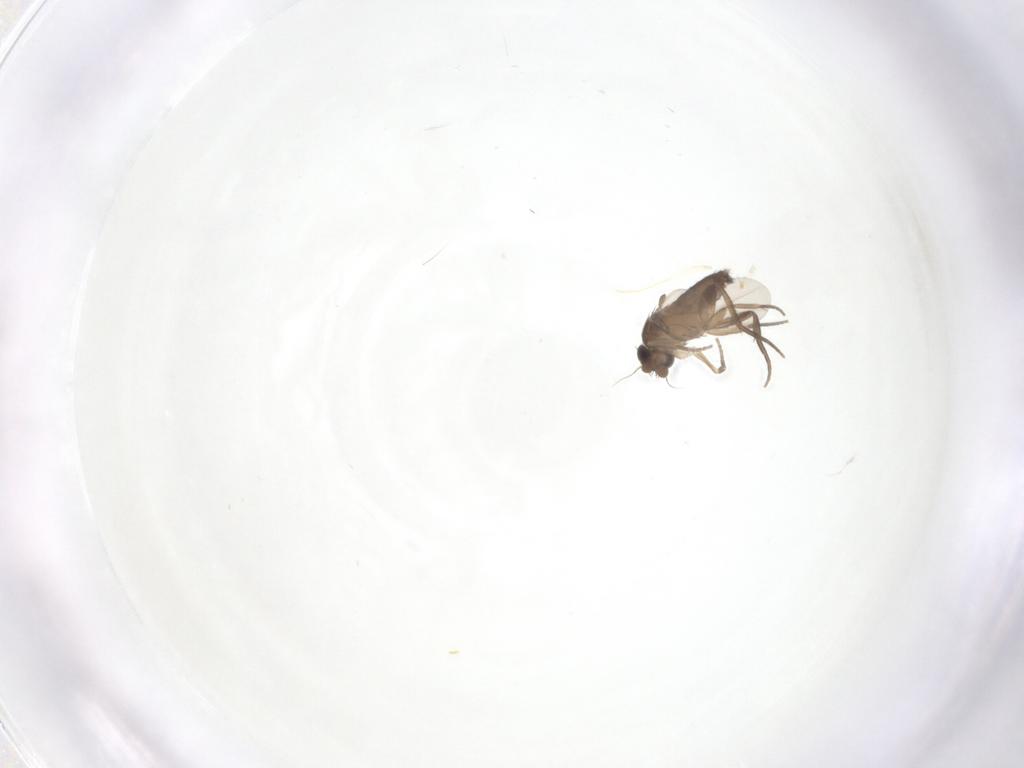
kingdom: Animalia
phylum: Arthropoda
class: Insecta
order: Diptera
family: Phoridae
